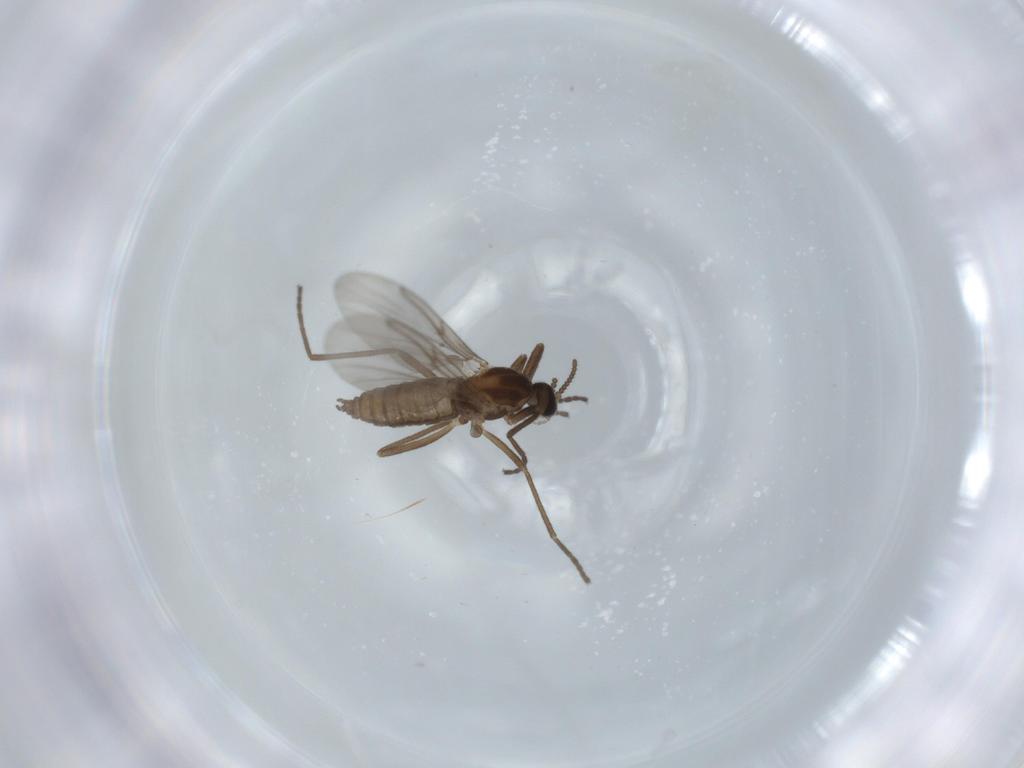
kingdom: Animalia
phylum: Arthropoda
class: Insecta
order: Diptera
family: Cecidomyiidae
